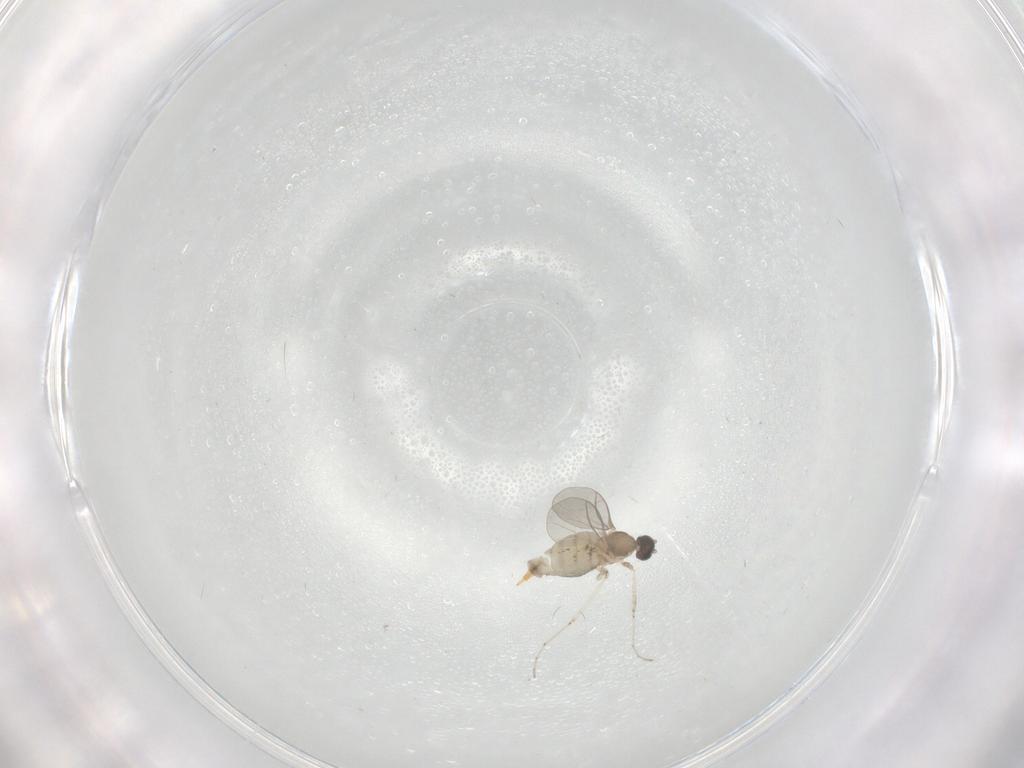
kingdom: Animalia
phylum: Arthropoda
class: Insecta
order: Diptera
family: Cecidomyiidae
